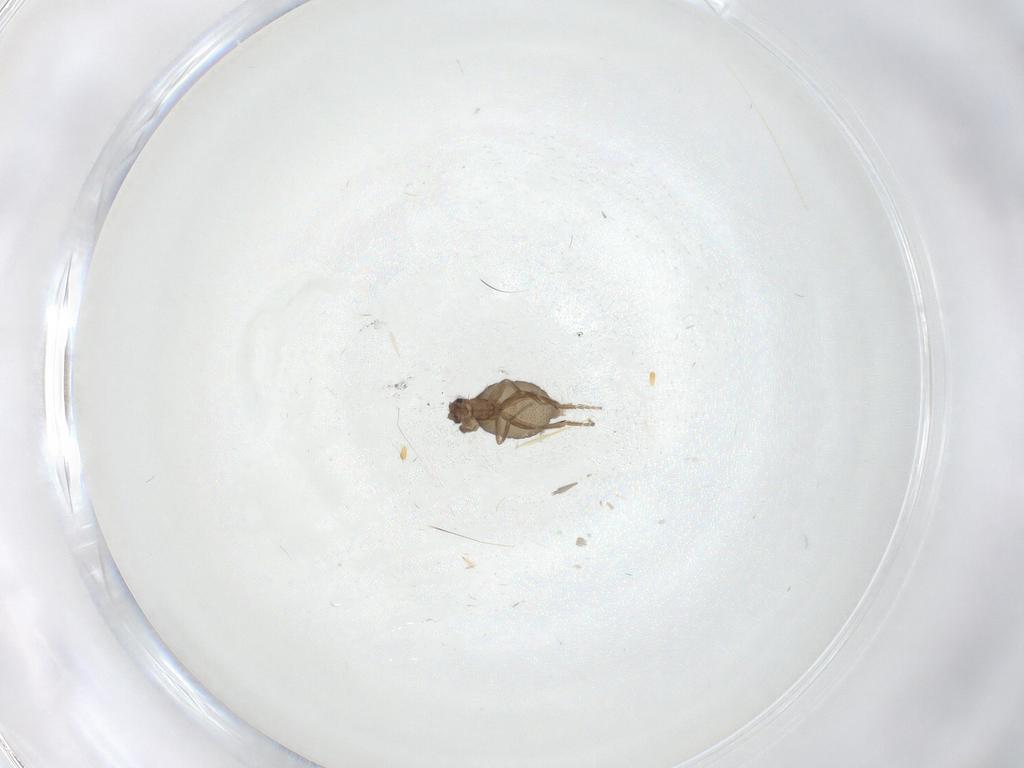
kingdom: Animalia
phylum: Arthropoda
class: Insecta
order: Diptera
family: Phoridae
